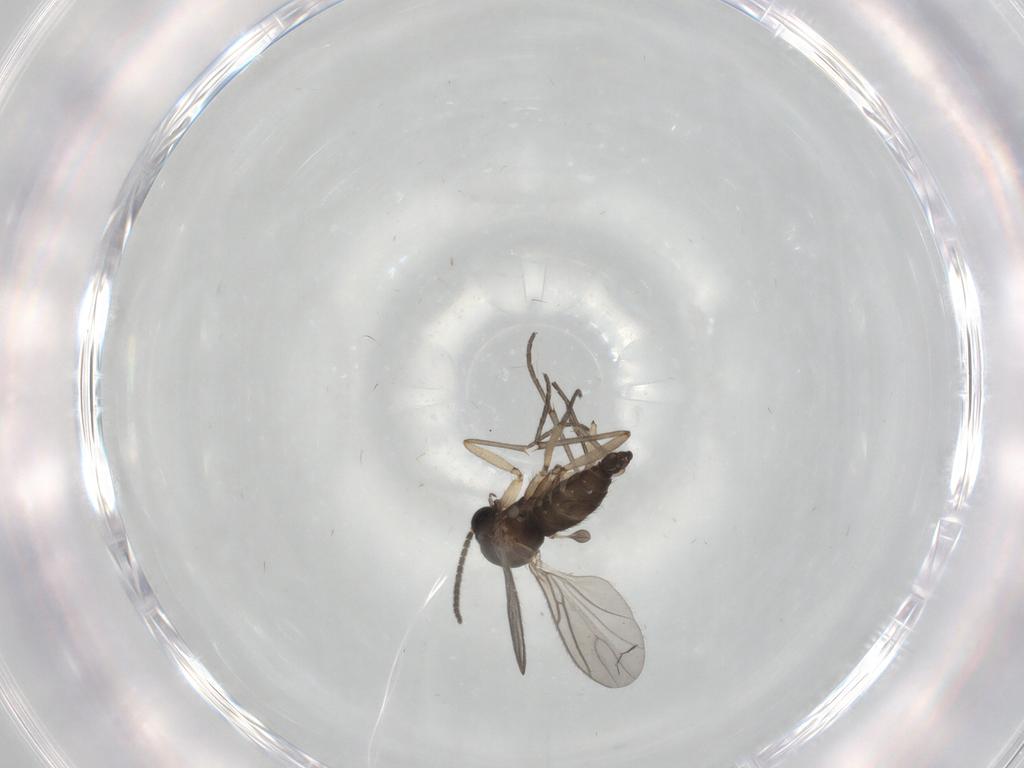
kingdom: Animalia
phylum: Arthropoda
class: Insecta
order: Diptera
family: Sciaridae
